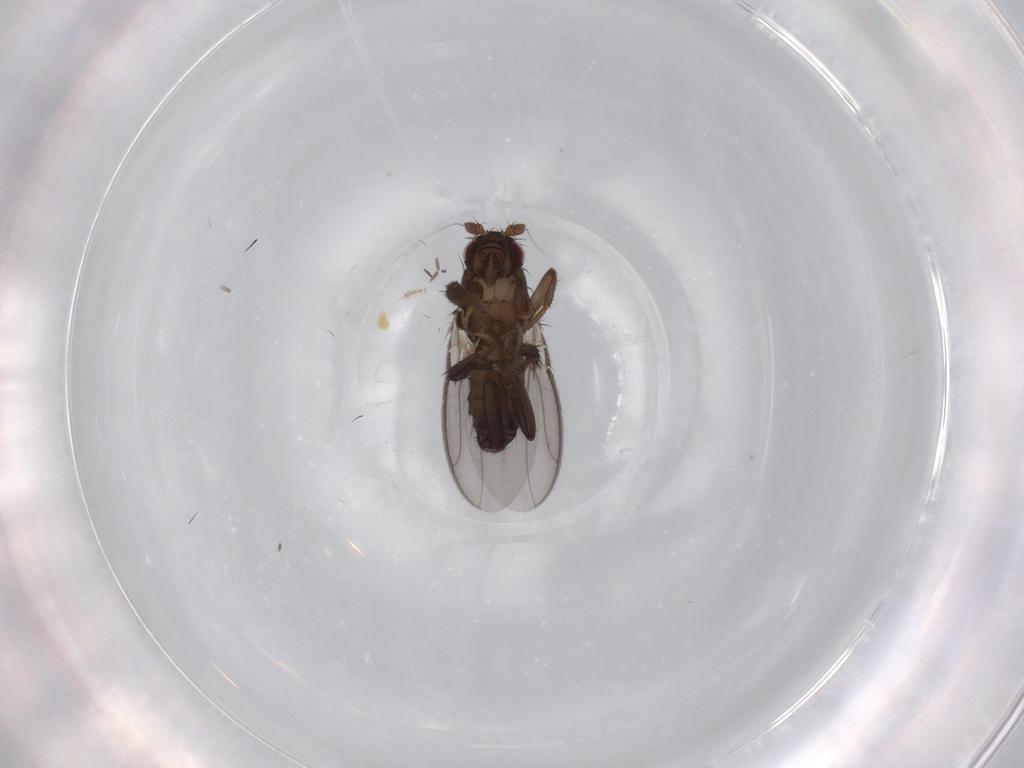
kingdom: Animalia
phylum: Arthropoda
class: Insecta
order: Diptera
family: Sphaeroceridae
